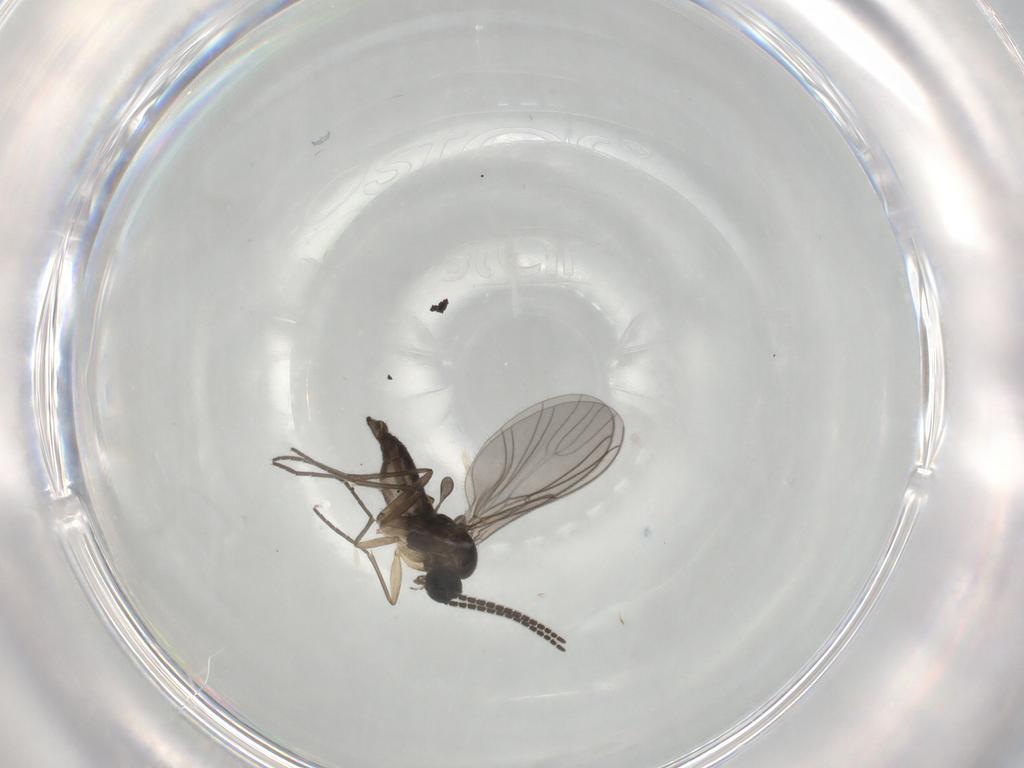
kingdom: Animalia
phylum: Arthropoda
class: Insecta
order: Diptera
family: Sciaridae
